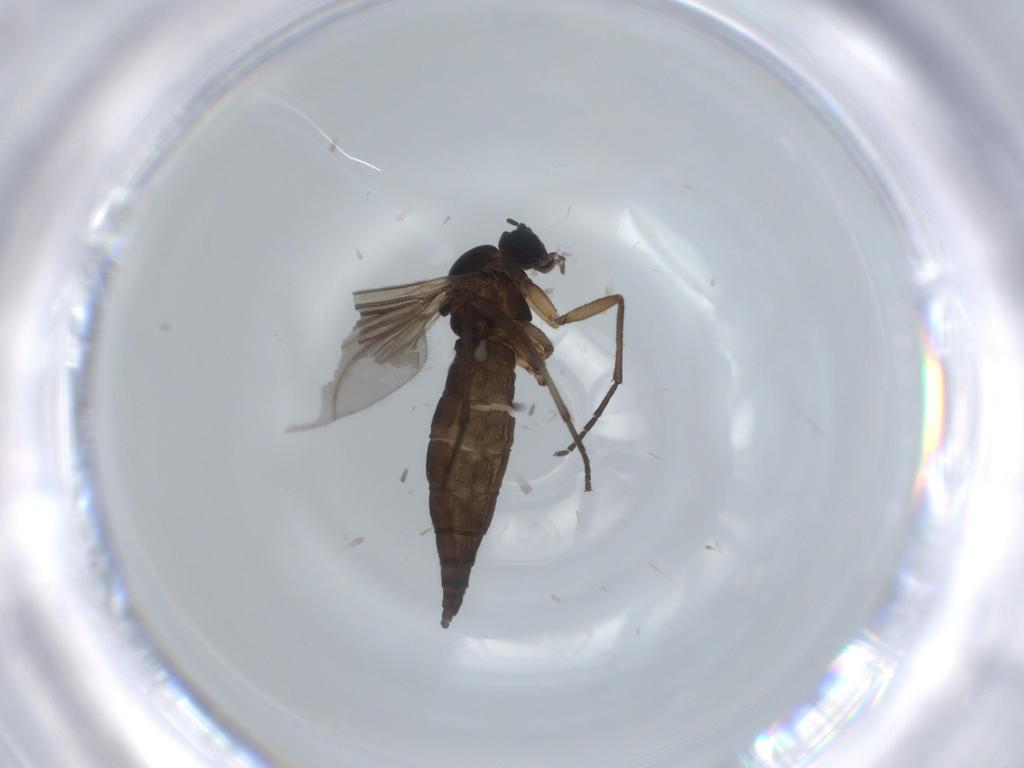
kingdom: Animalia
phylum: Arthropoda
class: Insecta
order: Diptera
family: Sciaridae
